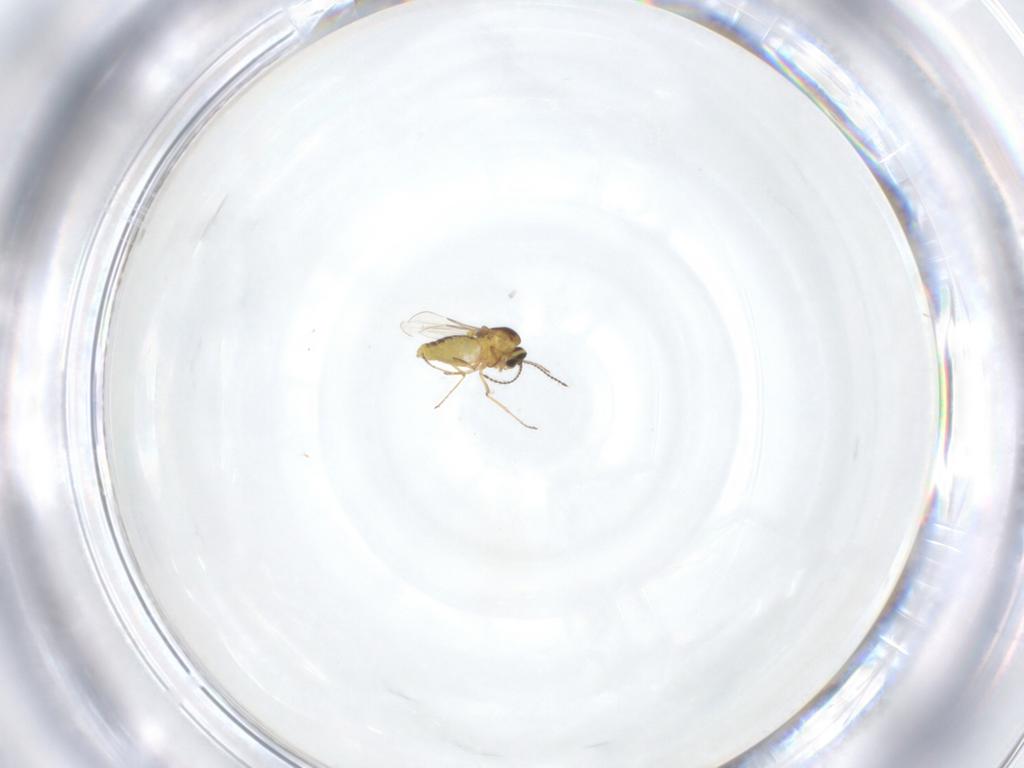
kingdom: Animalia
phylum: Arthropoda
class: Insecta
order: Diptera
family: Ceratopogonidae
